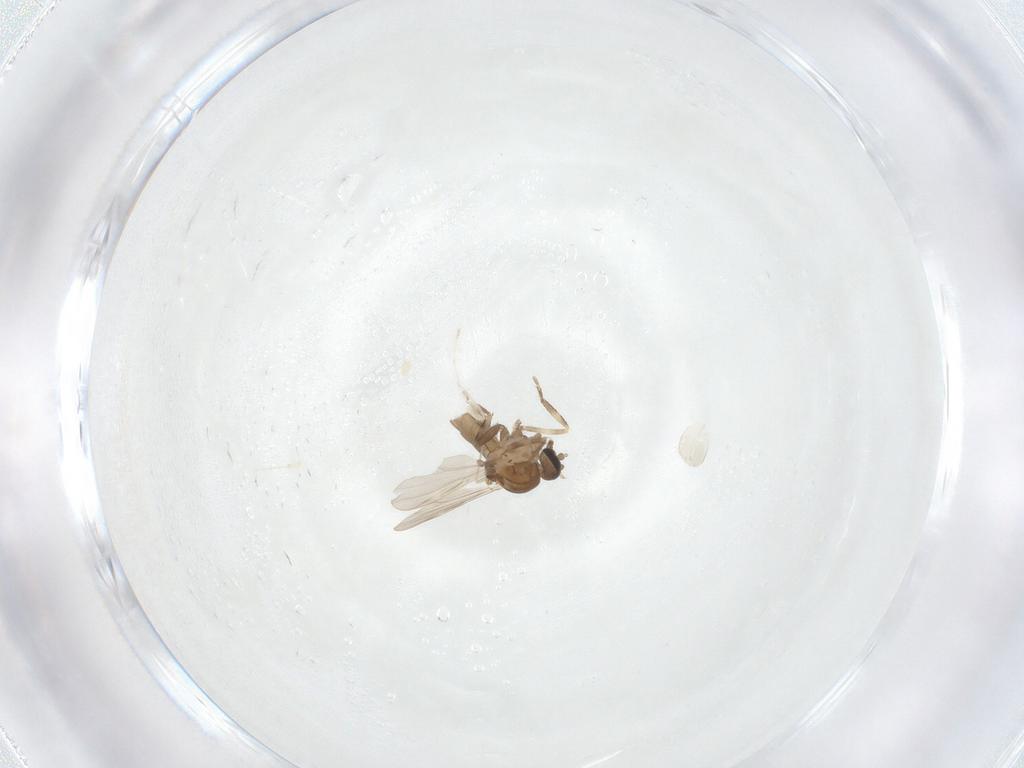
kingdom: Animalia
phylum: Arthropoda
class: Insecta
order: Diptera
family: Ceratopogonidae
